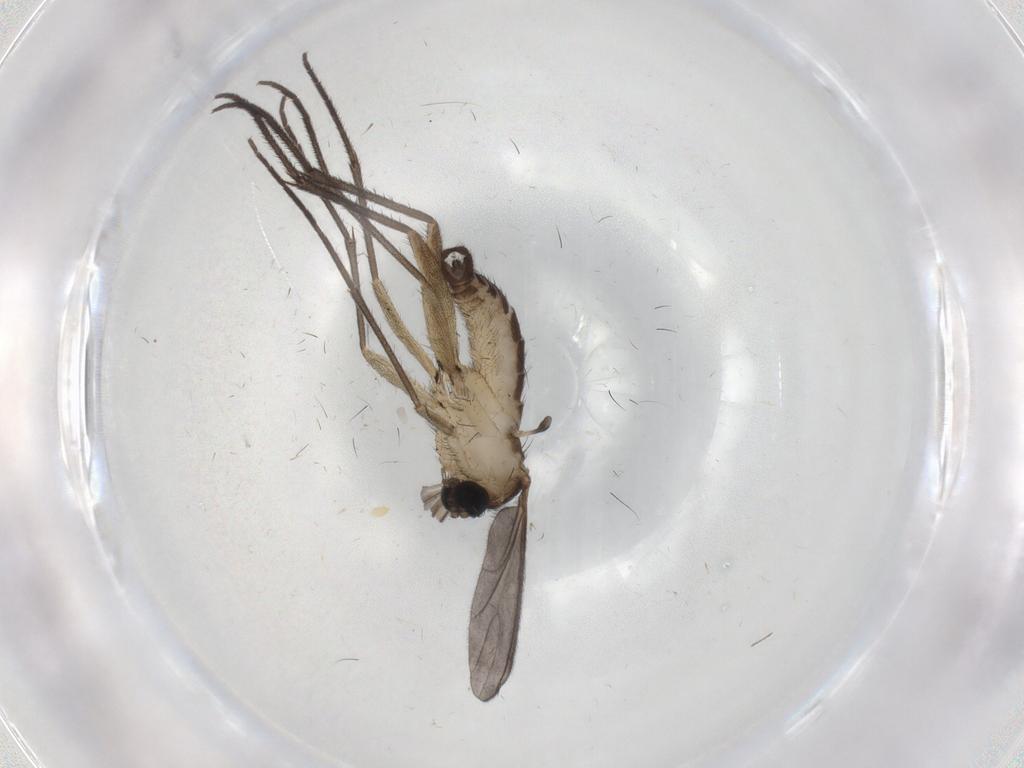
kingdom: Animalia
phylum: Arthropoda
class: Insecta
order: Diptera
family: Sciaridae
